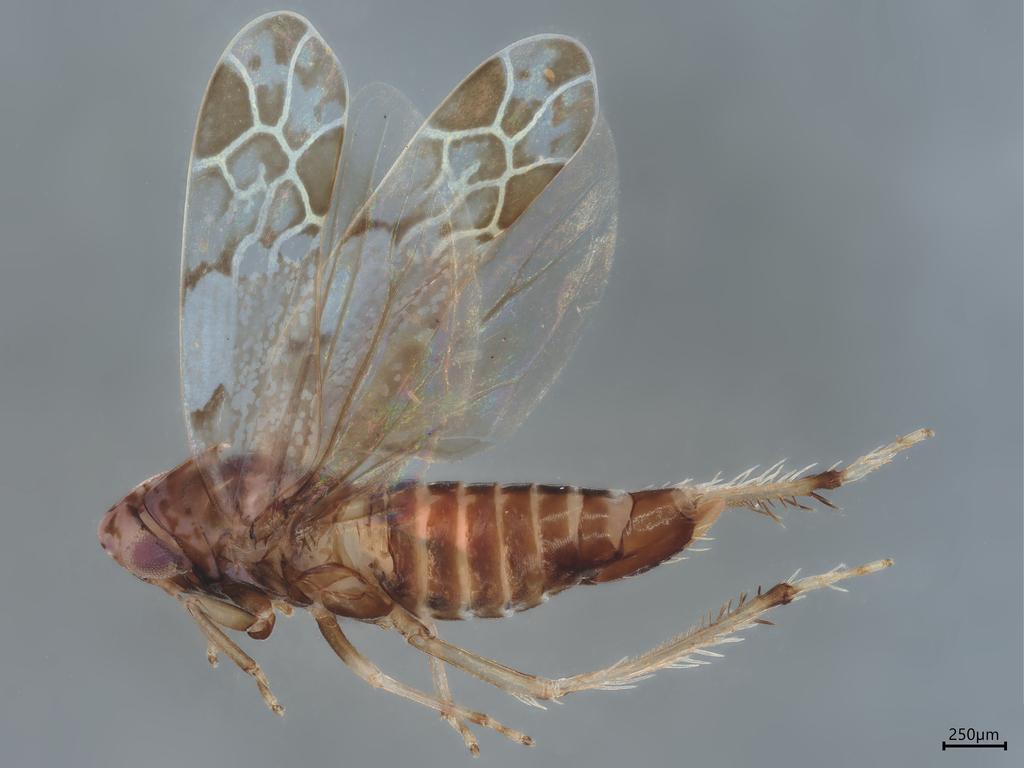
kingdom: Animalia
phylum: Arthropoda
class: Insecta
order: Hemiptera
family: Cicadellidae
